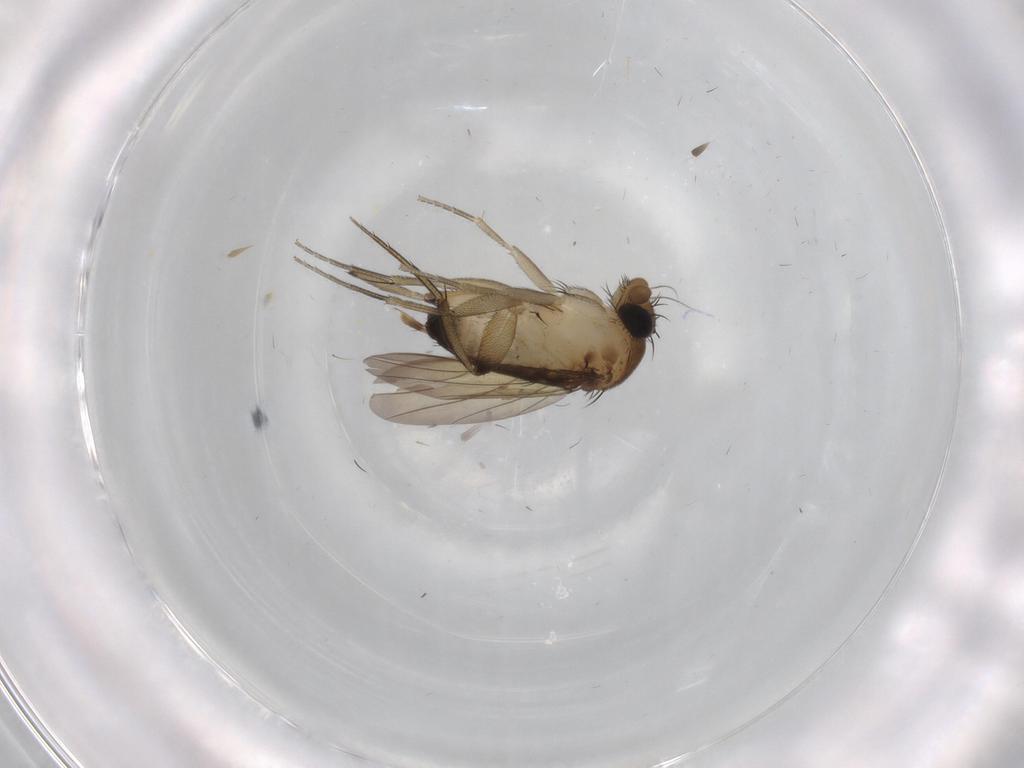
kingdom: Animalia
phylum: Arthropoda
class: Insecta
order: Diptera
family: Phoridae
